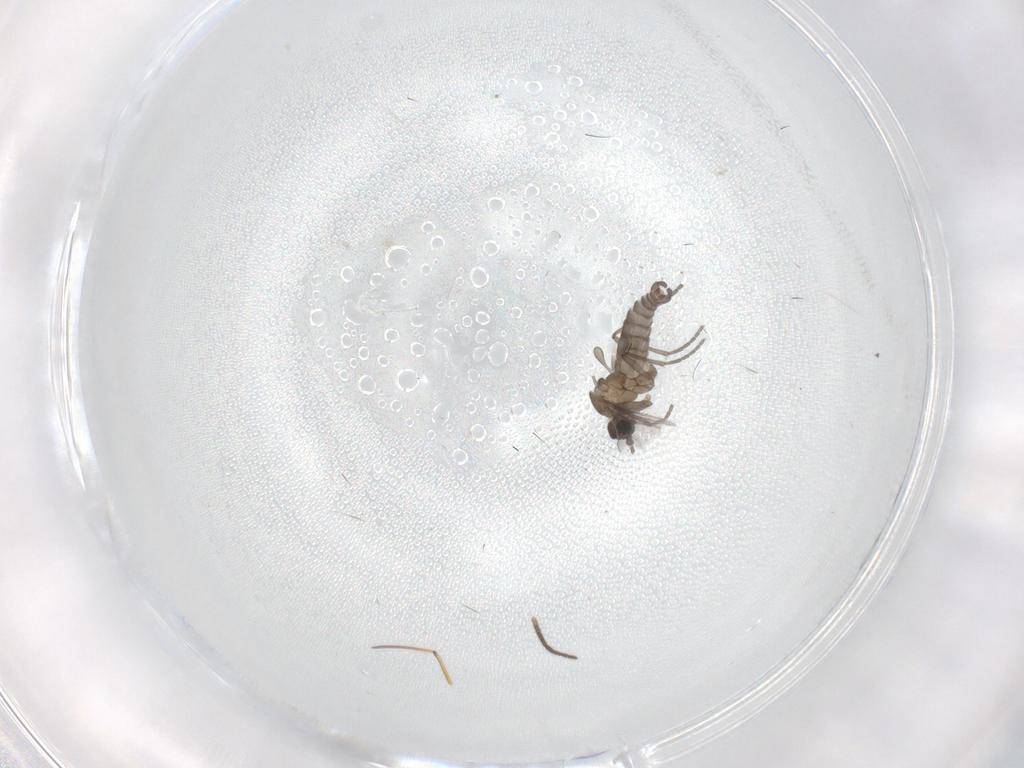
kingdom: Animalia
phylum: Arthropoda
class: Insecta
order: Diptera
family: Sciaridae
